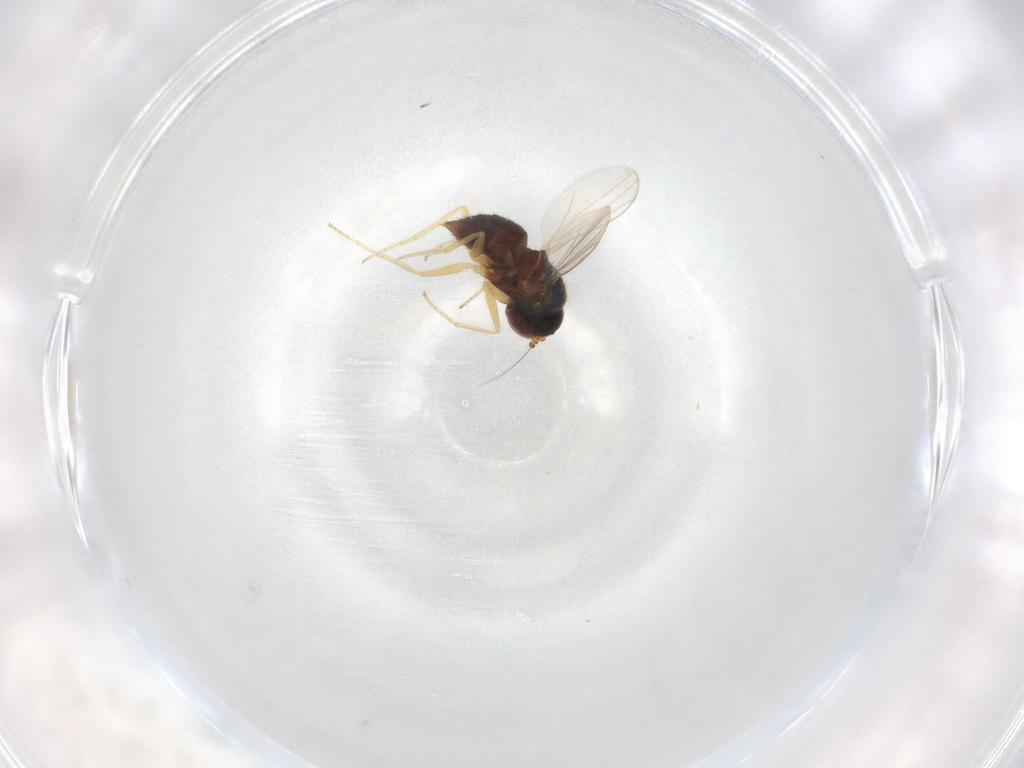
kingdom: Animalia
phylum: Arthropoda
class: Insecta
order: Diptera
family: Dolichopodidae
